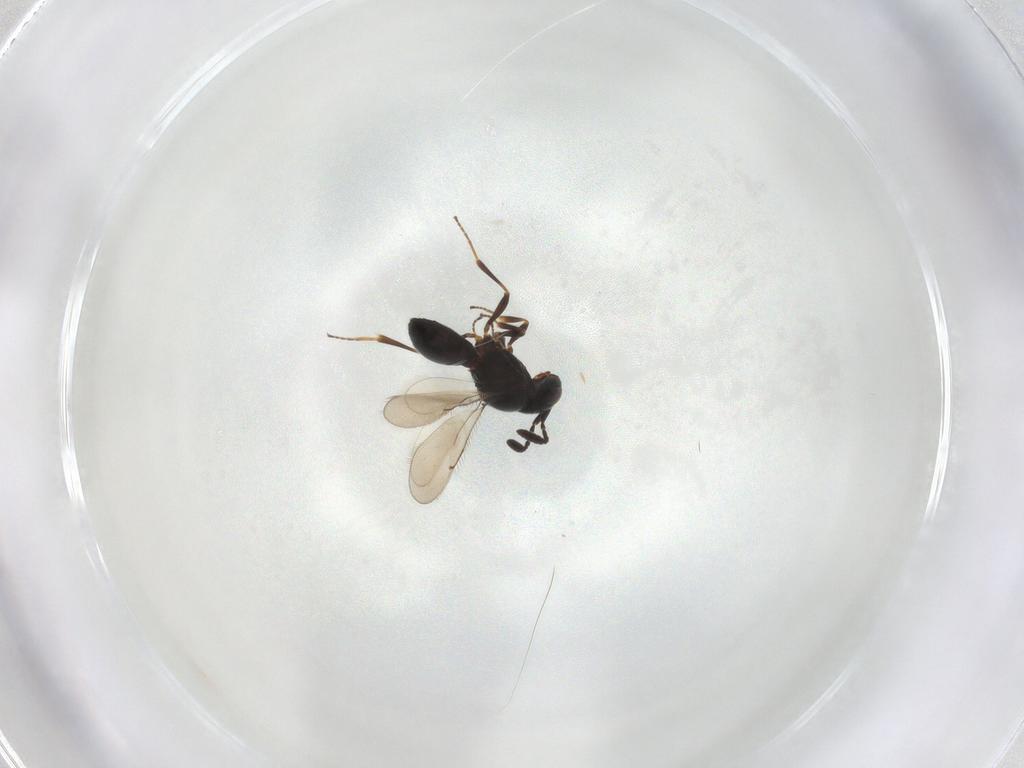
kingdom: Animalia
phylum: Arthropoda
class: Insecta
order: Hymenoptera
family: Scelionidae
